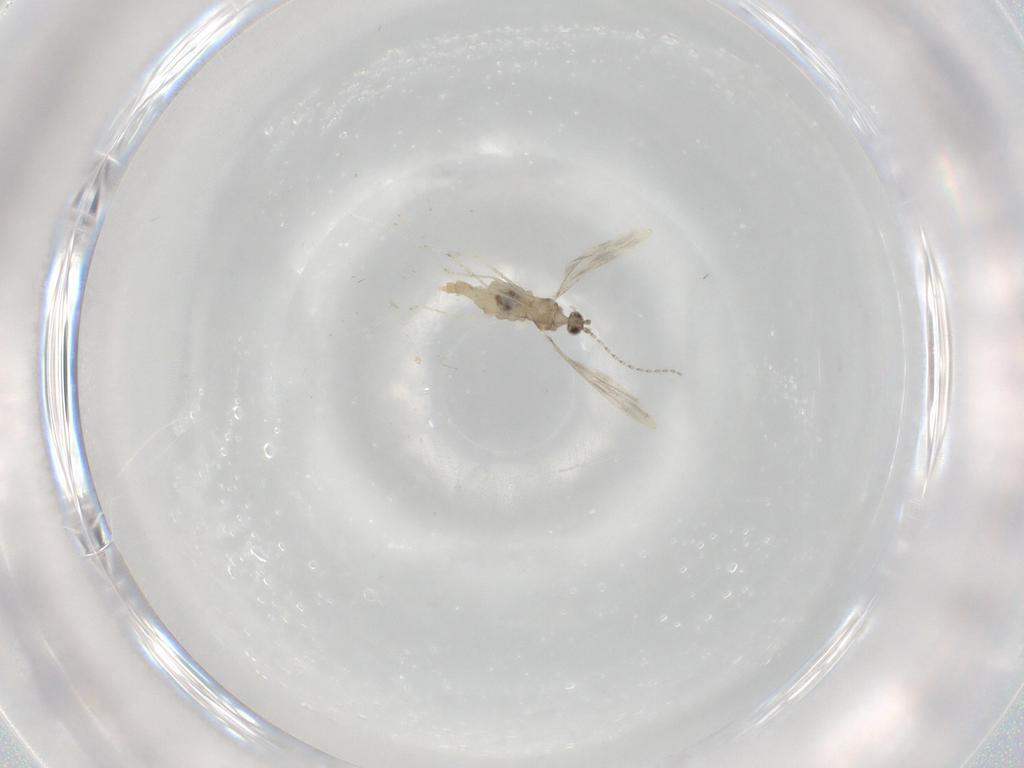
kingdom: Animalia
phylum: Arthropoda
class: Insecta
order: Diptera
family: Cecidomyiidae
